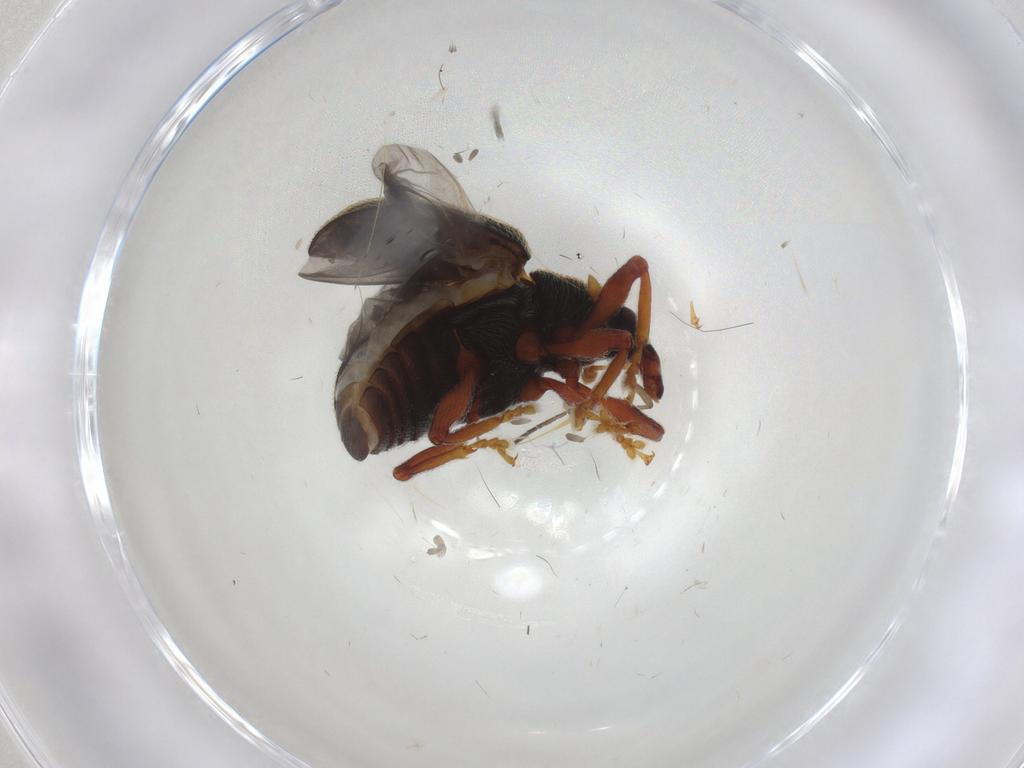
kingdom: Animalia
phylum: Arthropoda
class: Insecta
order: Coleoptera
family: Curculionidae
